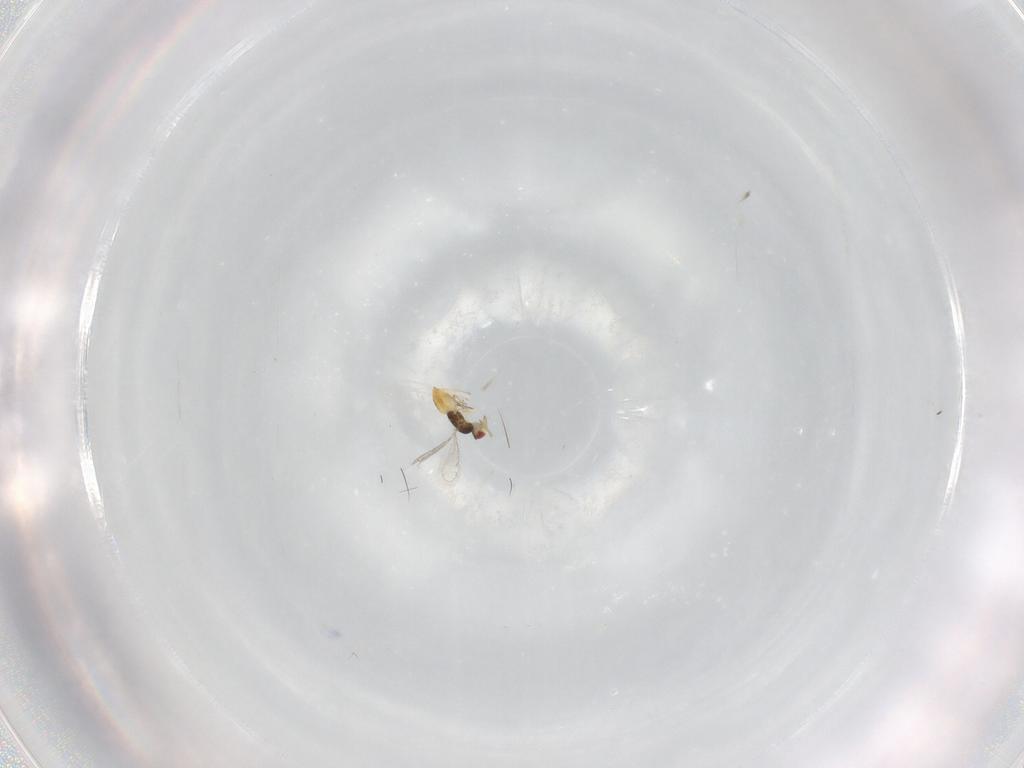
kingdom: Animalia
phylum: Arthropoda
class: Insecta
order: Hymenoptera
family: Eulophidae
